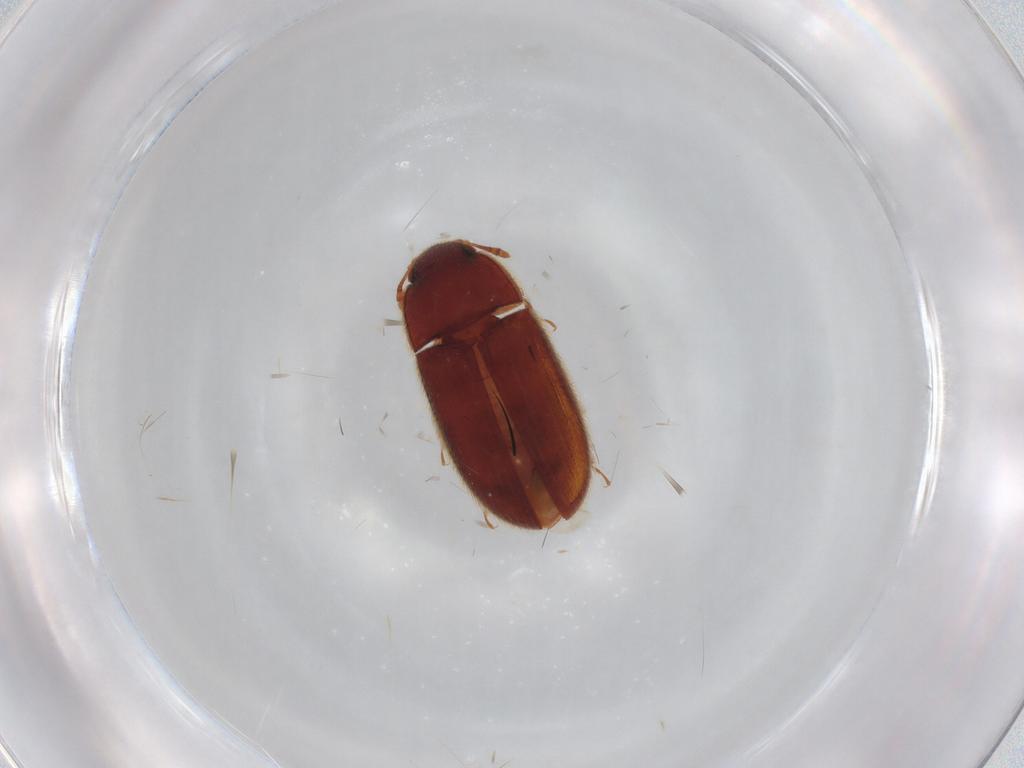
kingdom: Animalia
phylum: Arthropoda
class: Insecta
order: Coleoptera
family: Biphyllidae
